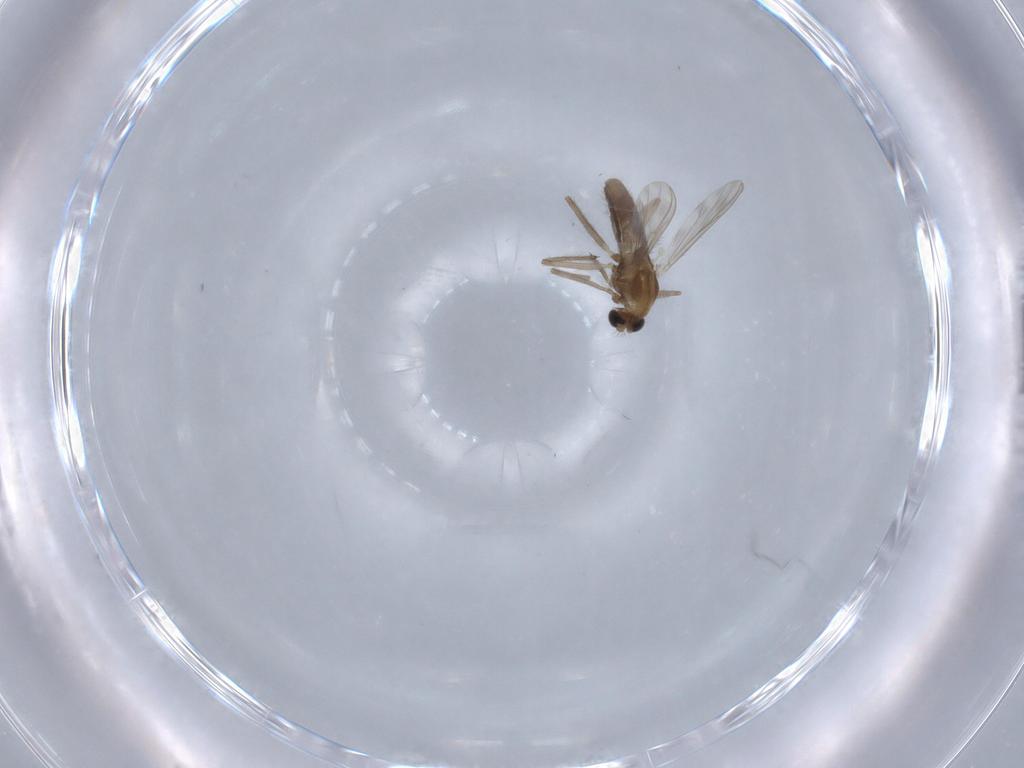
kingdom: Animalia
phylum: Arthropoda
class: Insecta
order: Diptera
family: Chironomidae
